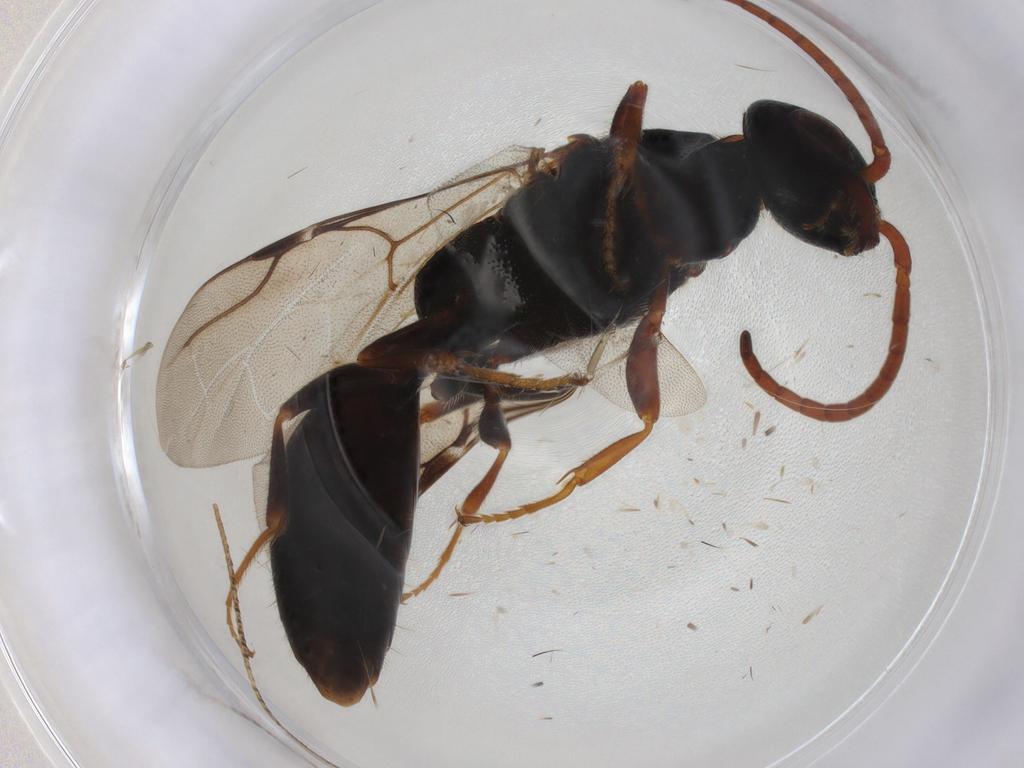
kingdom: Animalia
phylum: Arthropoda
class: Insecta
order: Hymenoptera
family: Bethylidae
